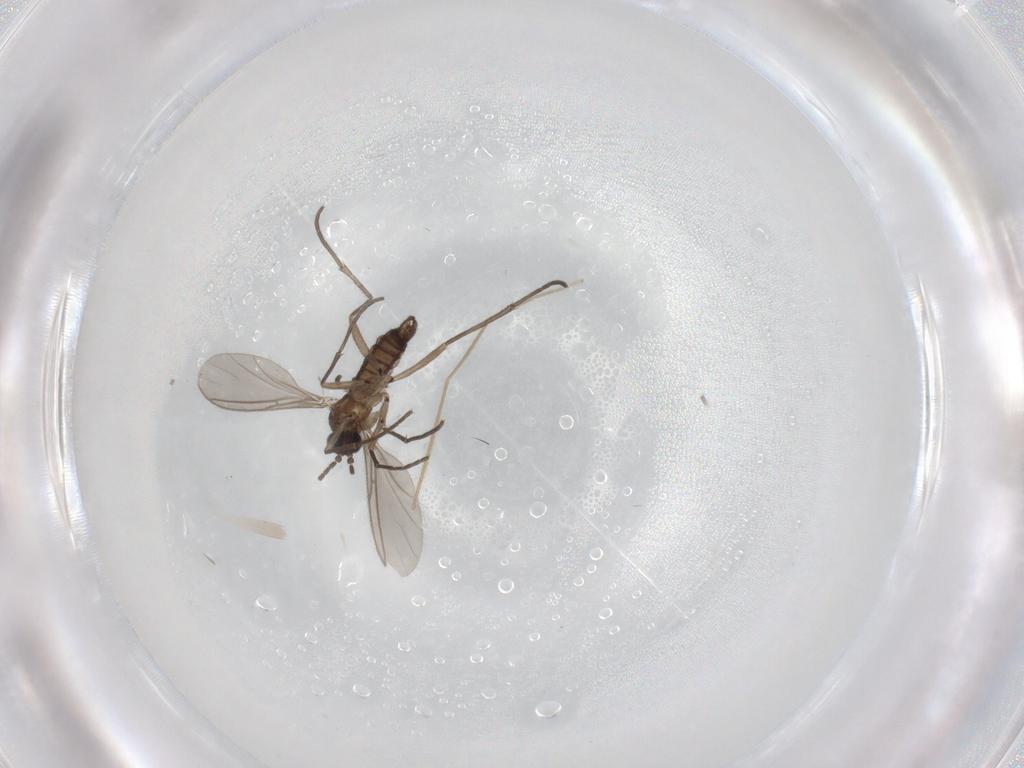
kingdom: Animalia
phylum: Arthropoda
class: Insecta
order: Diptera
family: Sciaridae
